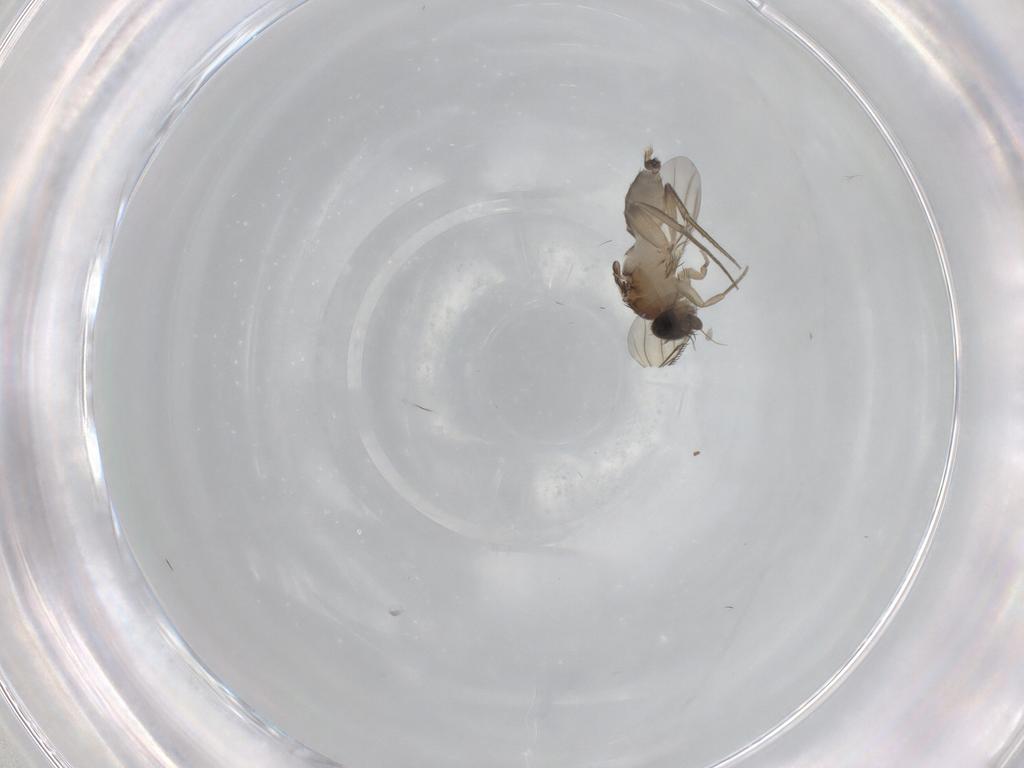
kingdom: Animalia
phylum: Arthropoda
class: Insecta
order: Diptera
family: Phoridae
